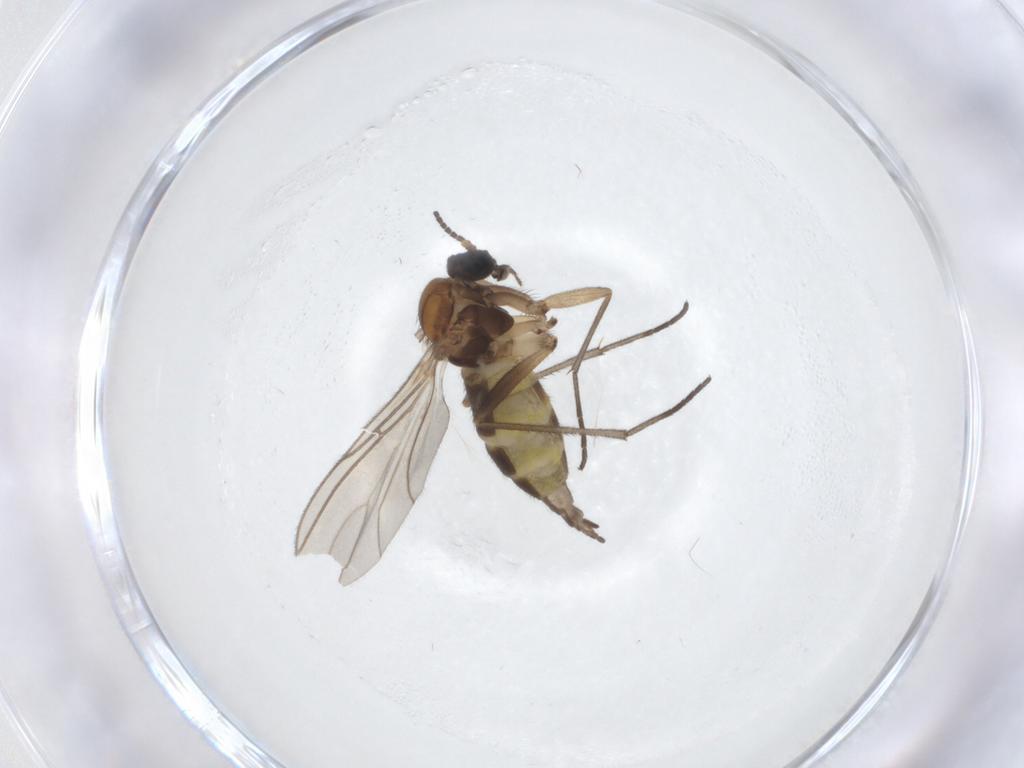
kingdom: Animalia
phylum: Arthropoda
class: Insecta
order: Diptera
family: Sciaridae
